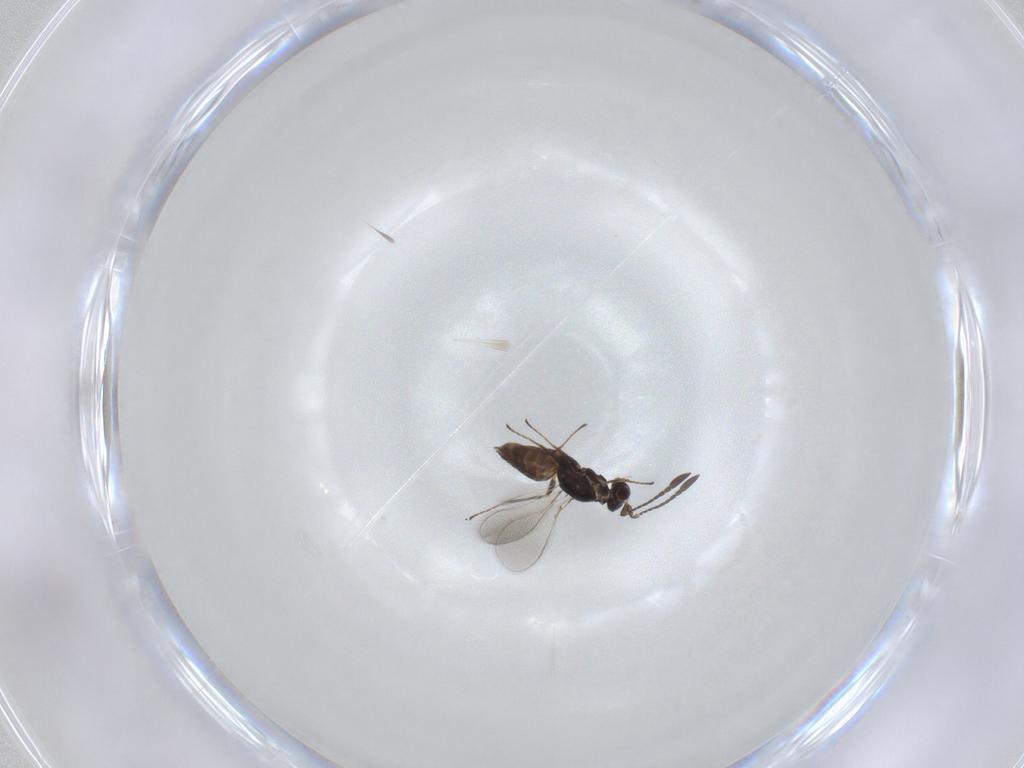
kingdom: Animalia
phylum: Arthropoda
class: Insecta
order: Hymenoptera
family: Mymaridae
